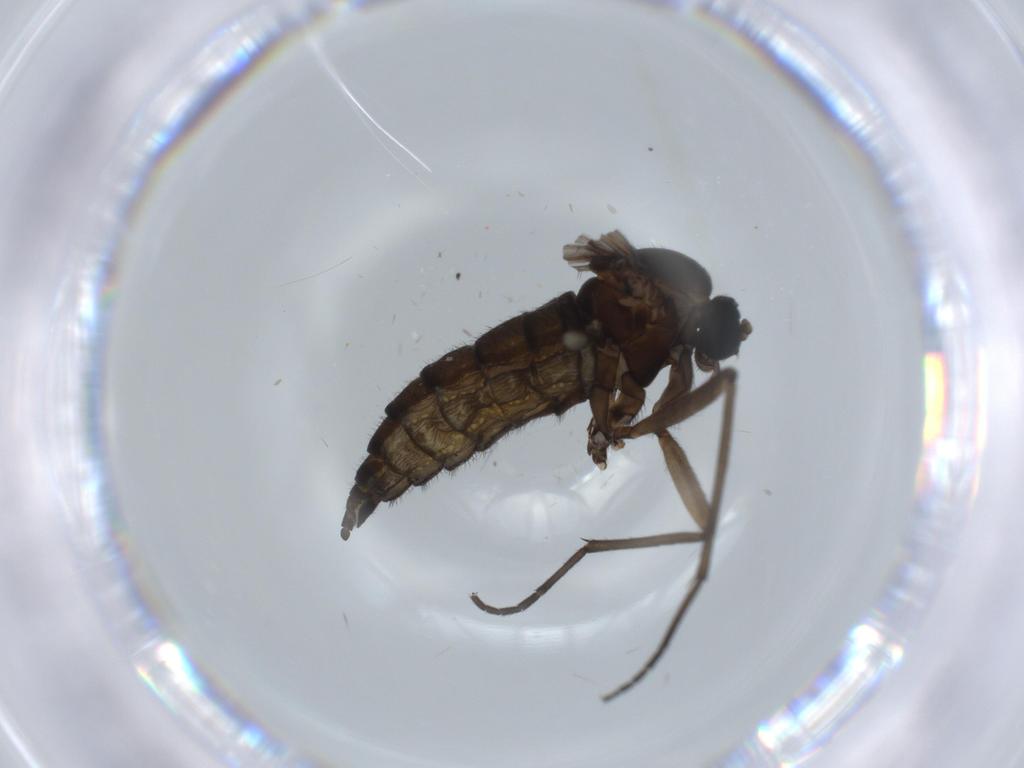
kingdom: Animalia
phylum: Arthropoda
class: Insecta
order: Diptera
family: Sciaridae
